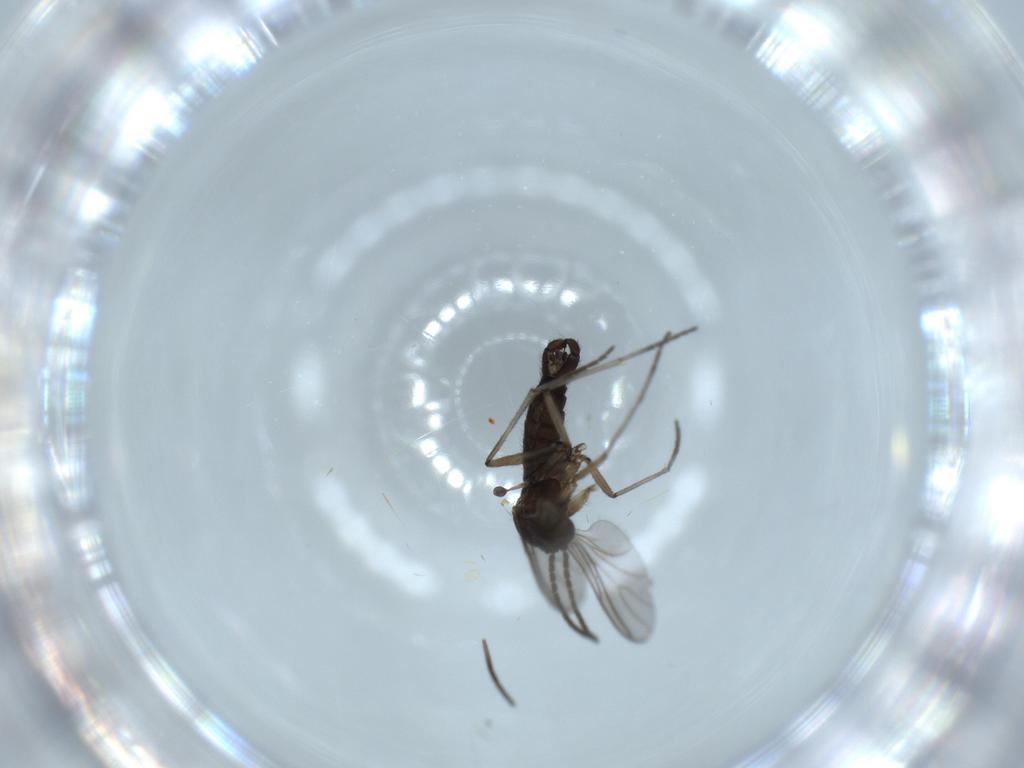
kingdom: Animalia
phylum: Arthropoda
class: Insecta
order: Diptera
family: Sciaridae
